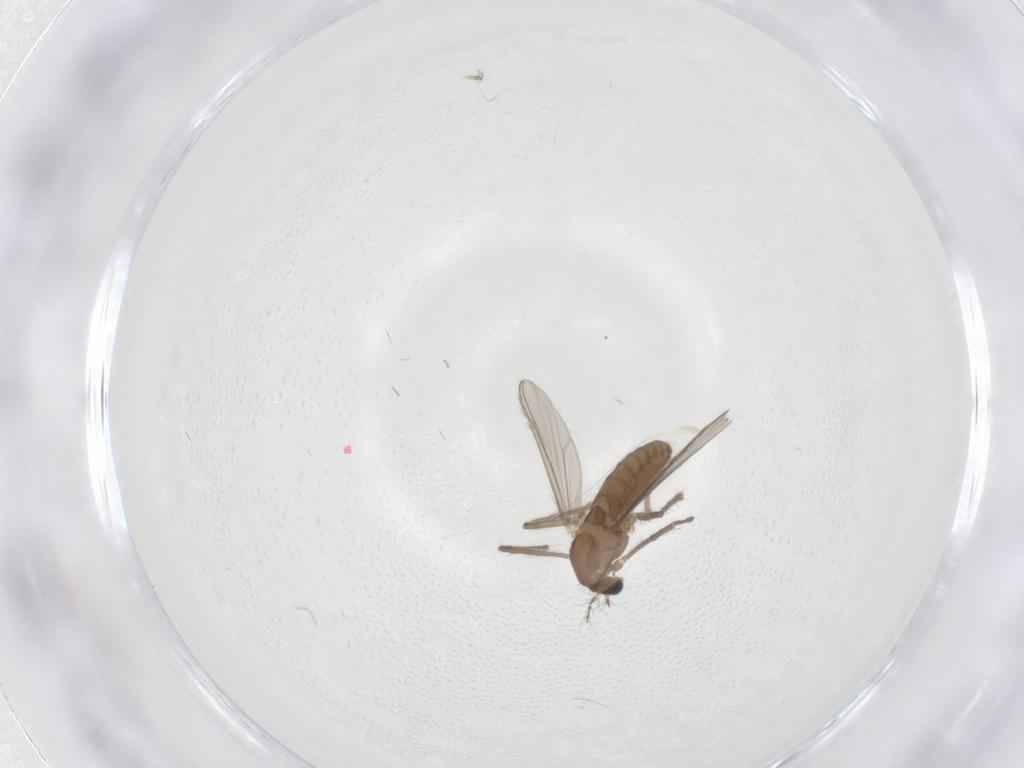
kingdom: Animalia
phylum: Arthropoda
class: Insecta
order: Diptera
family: Chironomidae
